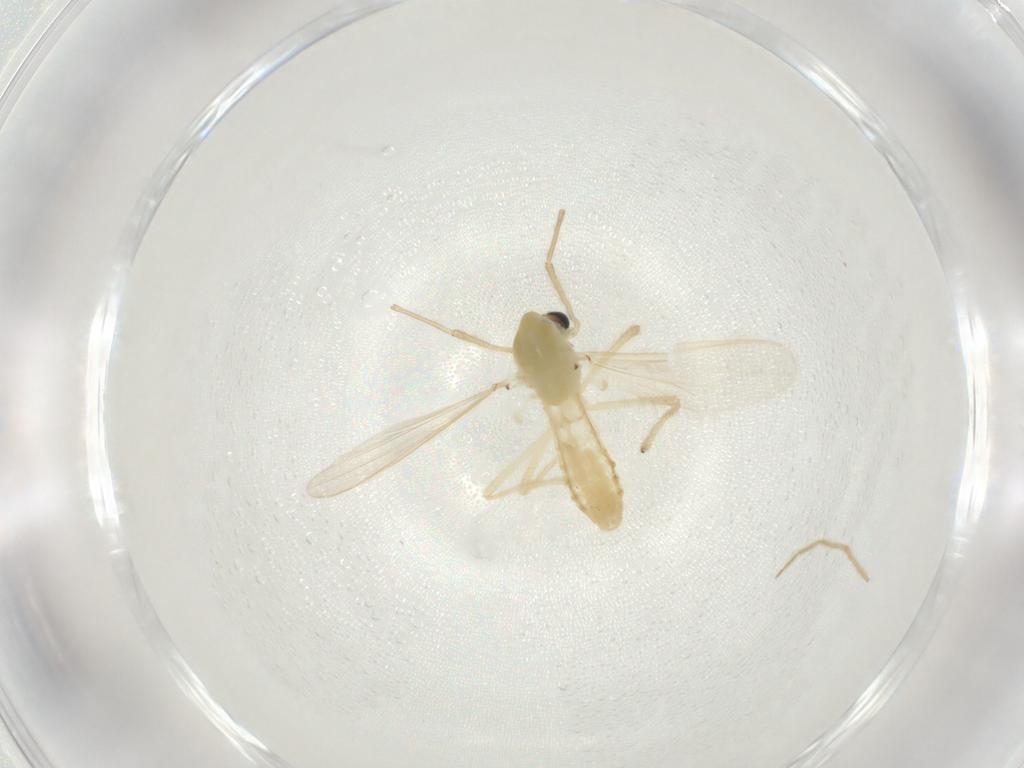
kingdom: Animalia
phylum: Arthropoda
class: Insecta
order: Diptera
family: Chironomidae
